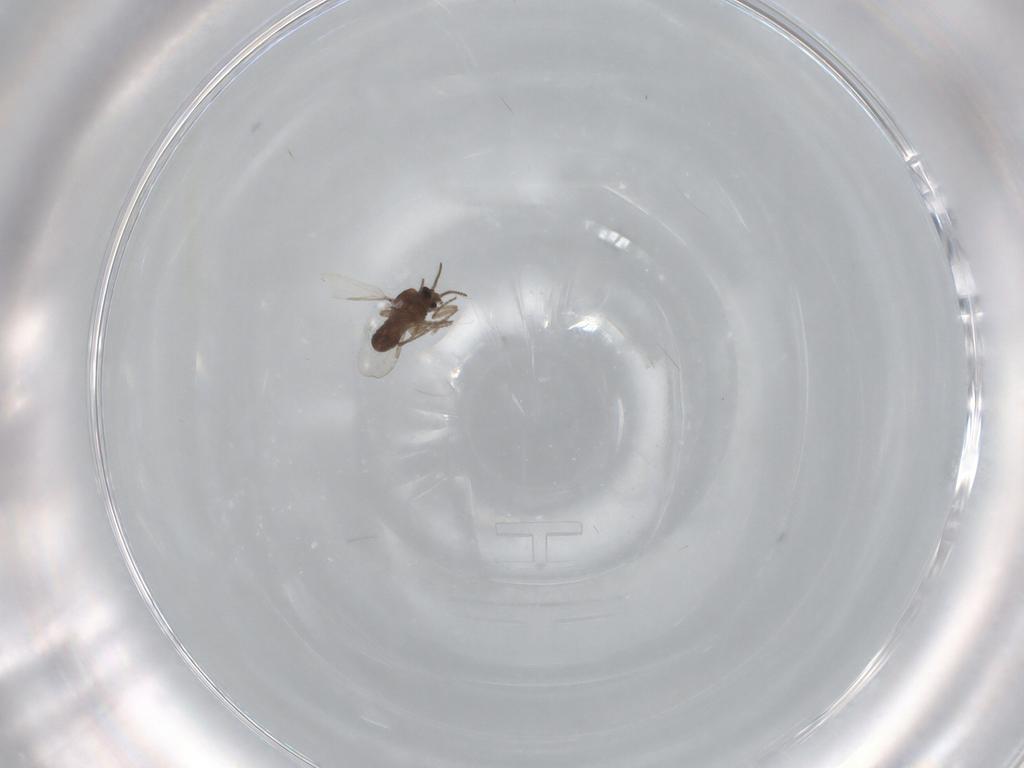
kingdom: Animalia
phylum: Arthropoda
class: Insecta
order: Diptera
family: Ceratopogonidae
